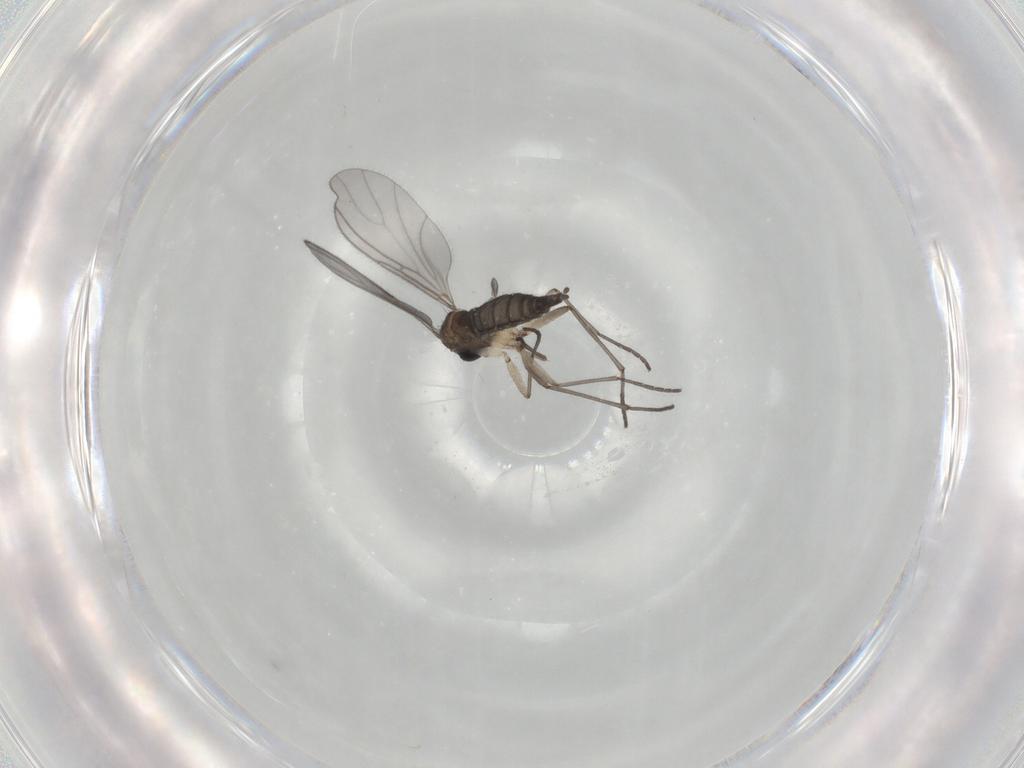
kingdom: Animalia
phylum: Arthropoda
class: Insecta
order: Diptera
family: Sciaridae
